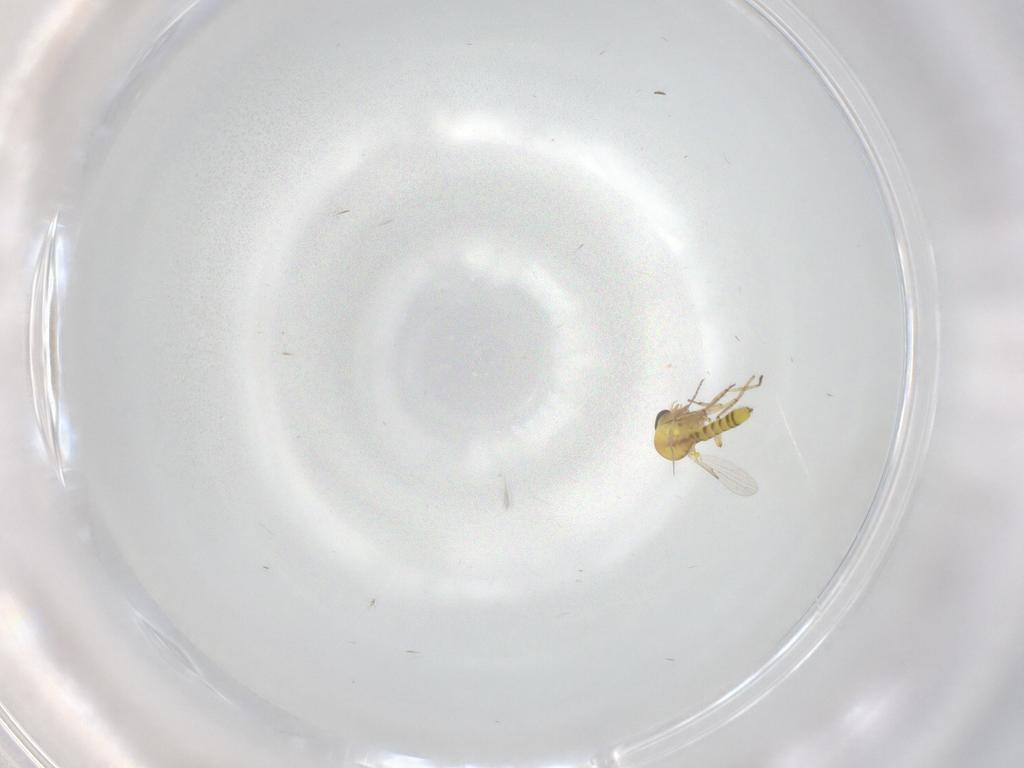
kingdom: Animalia
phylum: Arthropoda
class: Insecta
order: Diptera
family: Ceratopogonidae
